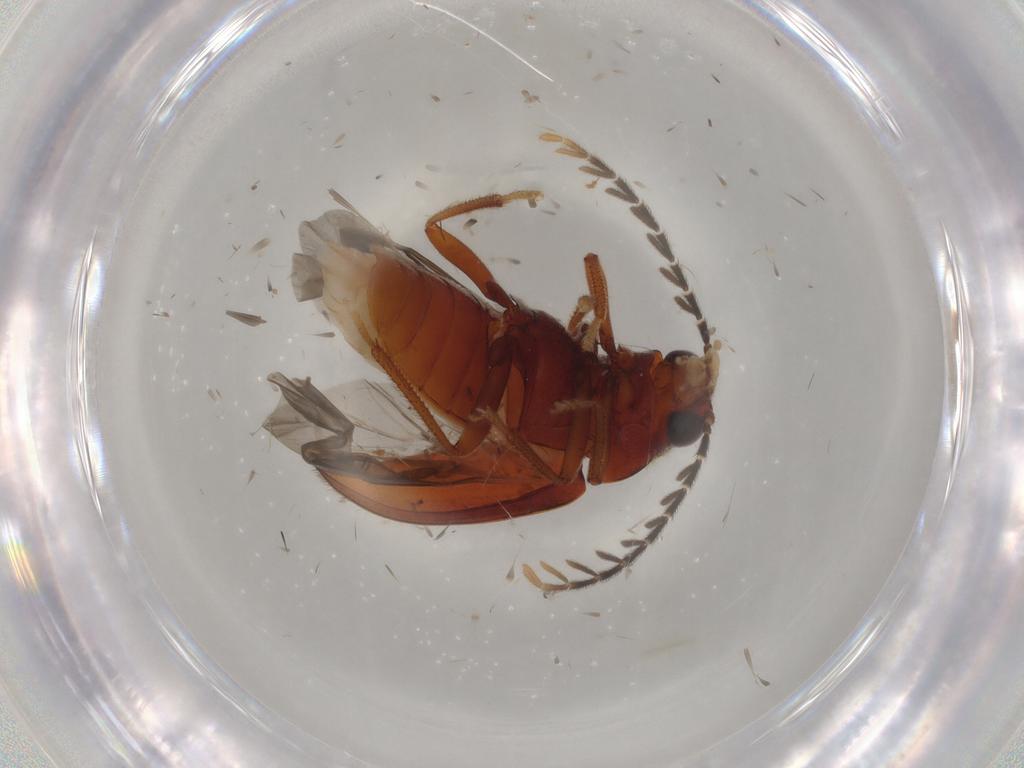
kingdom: Animalia
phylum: Arthropoda
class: Insecta
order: Coleoptera
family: Ptilodactylidae
